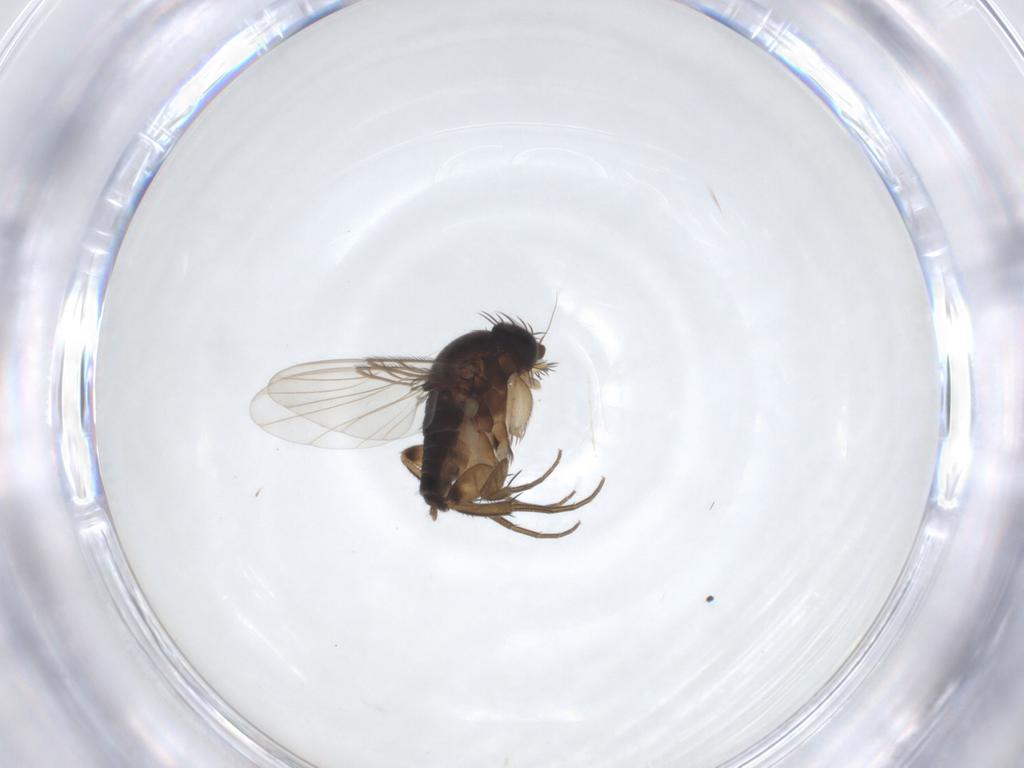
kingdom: Animalia
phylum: Arthropoda
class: Insecta
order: Diptera
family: Phoridae
